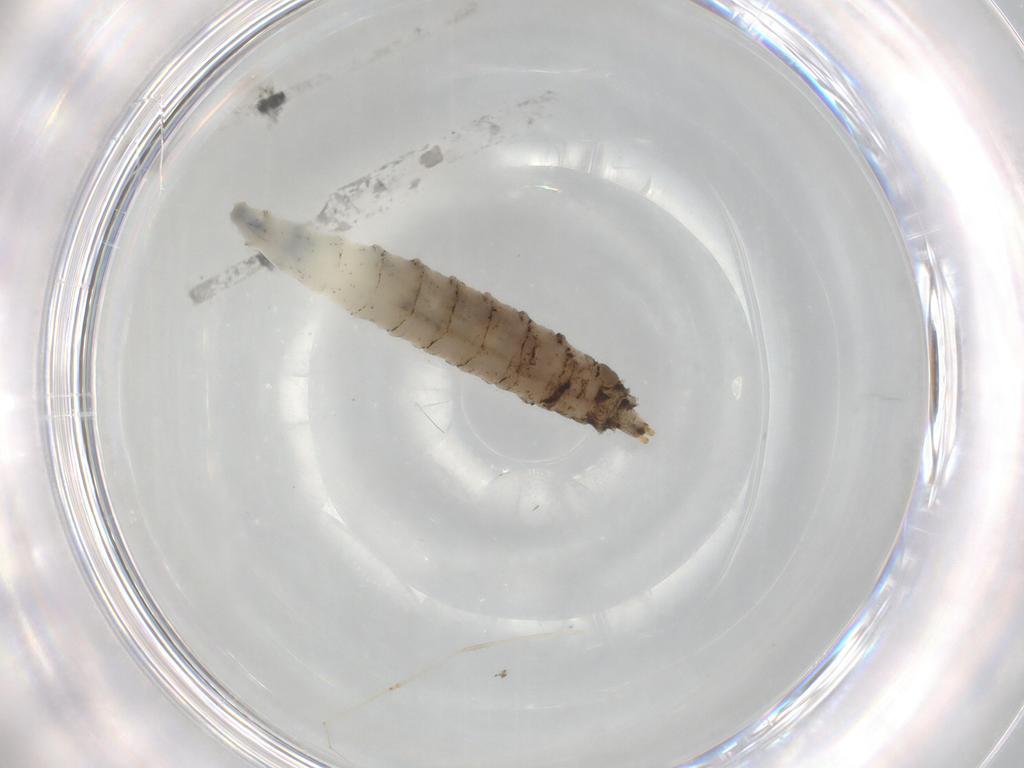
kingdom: Animalia
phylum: Arthropoda
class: Insecta
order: Diptera
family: Drosophilidae
